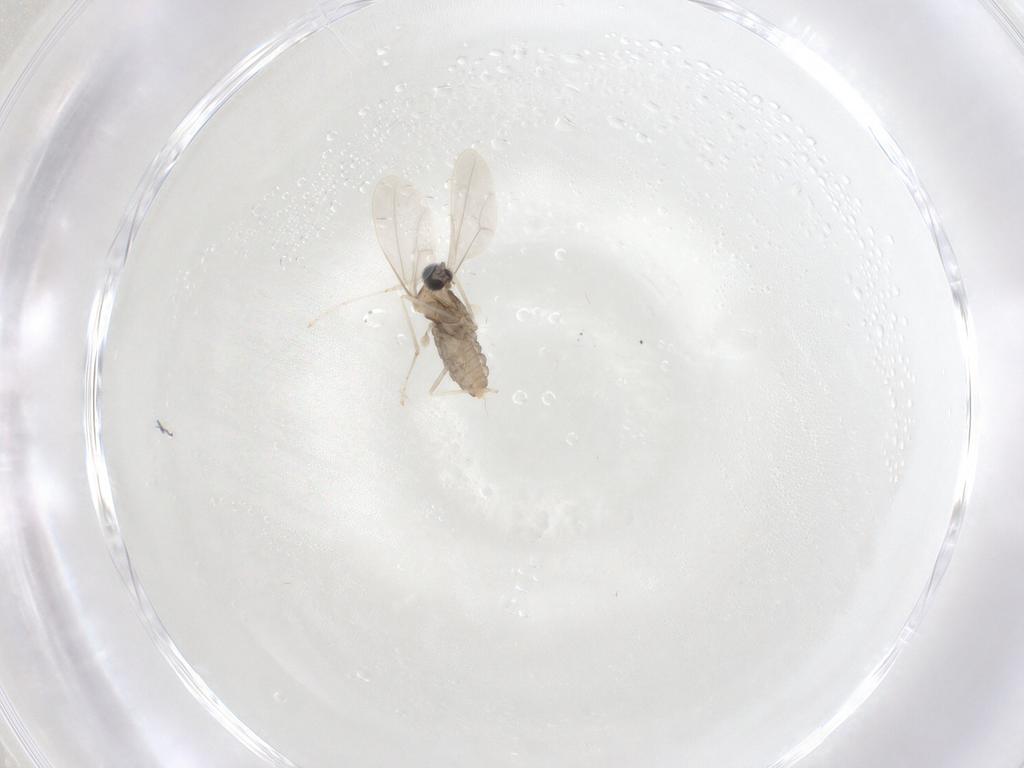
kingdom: Animalia
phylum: Arthropoda
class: Insecta
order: Diptera
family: Cecidomyiidae
